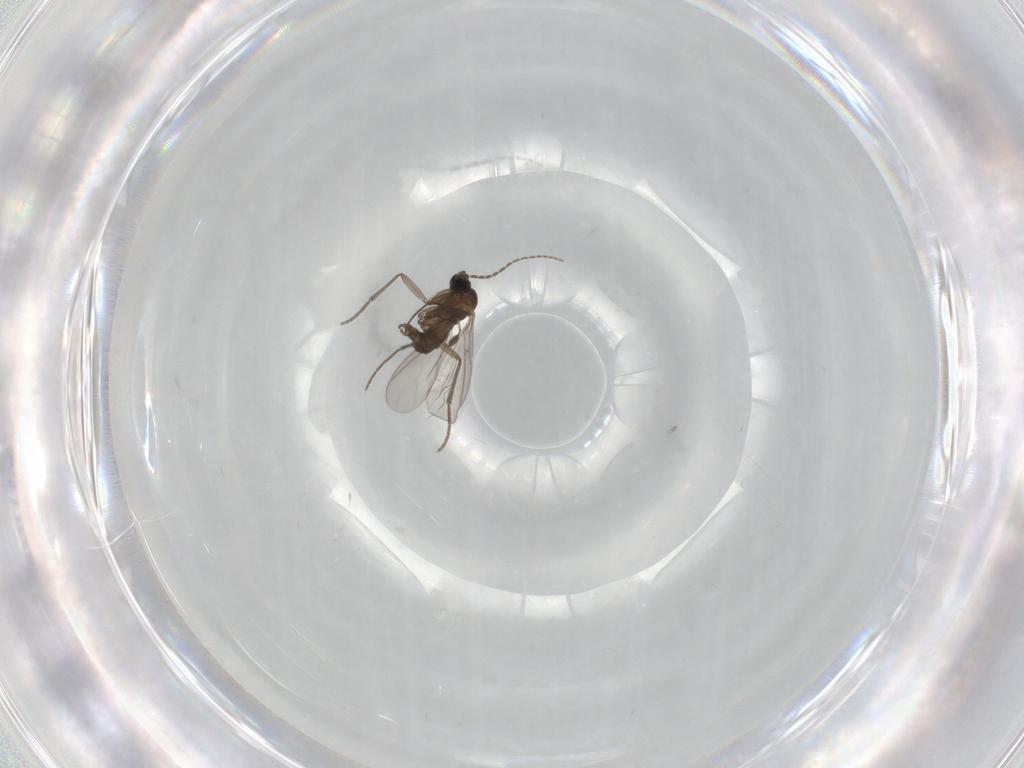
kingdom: Animalia
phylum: Arthropoda
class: Insecta
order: Diptera
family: Sciaridae
